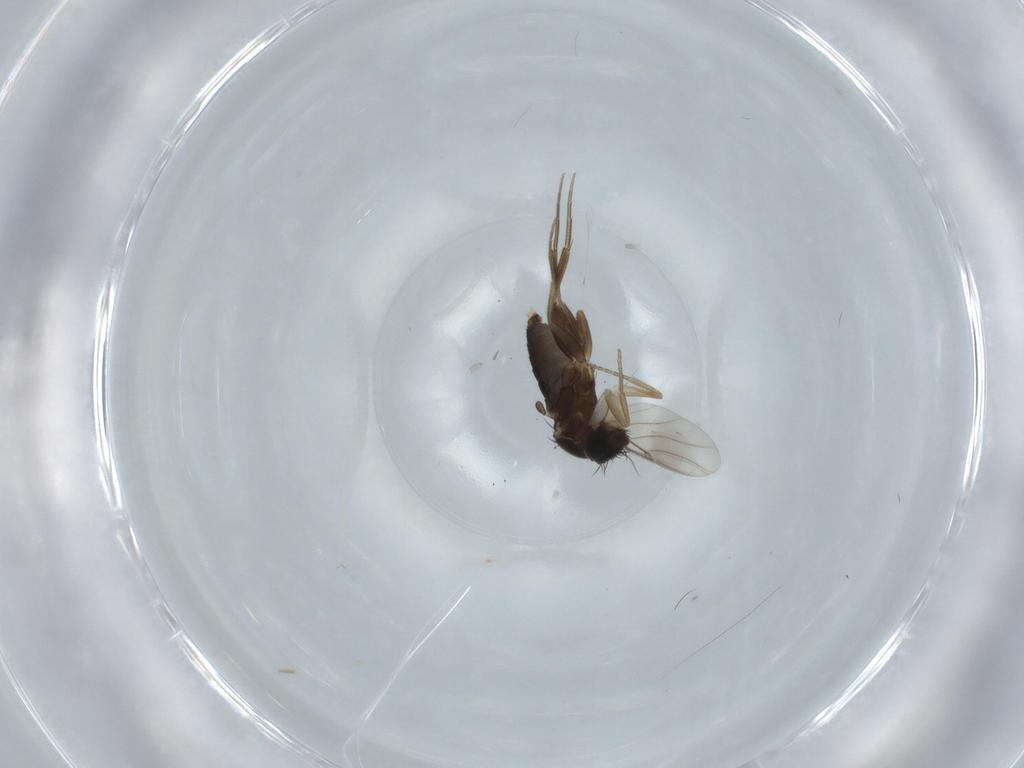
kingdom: Animalia
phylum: Arthropoda
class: Insecta
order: Diptera
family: Phoridae
